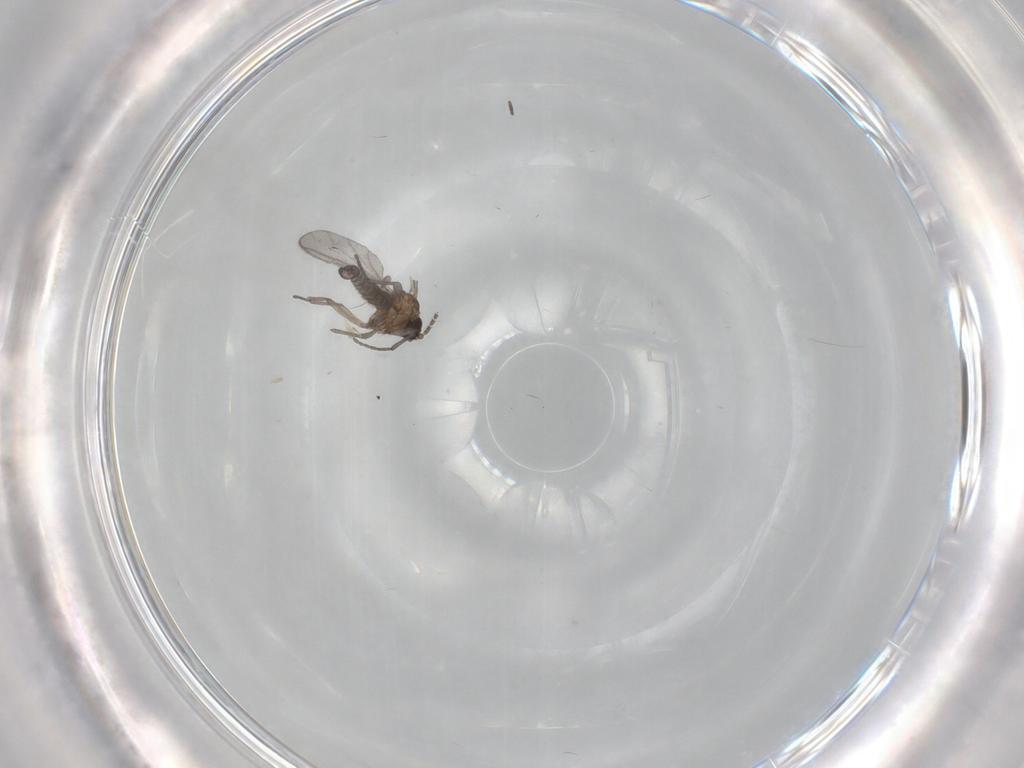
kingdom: Animalia
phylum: Arthropoda
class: Insecta
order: Diptera
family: Sciaridae
